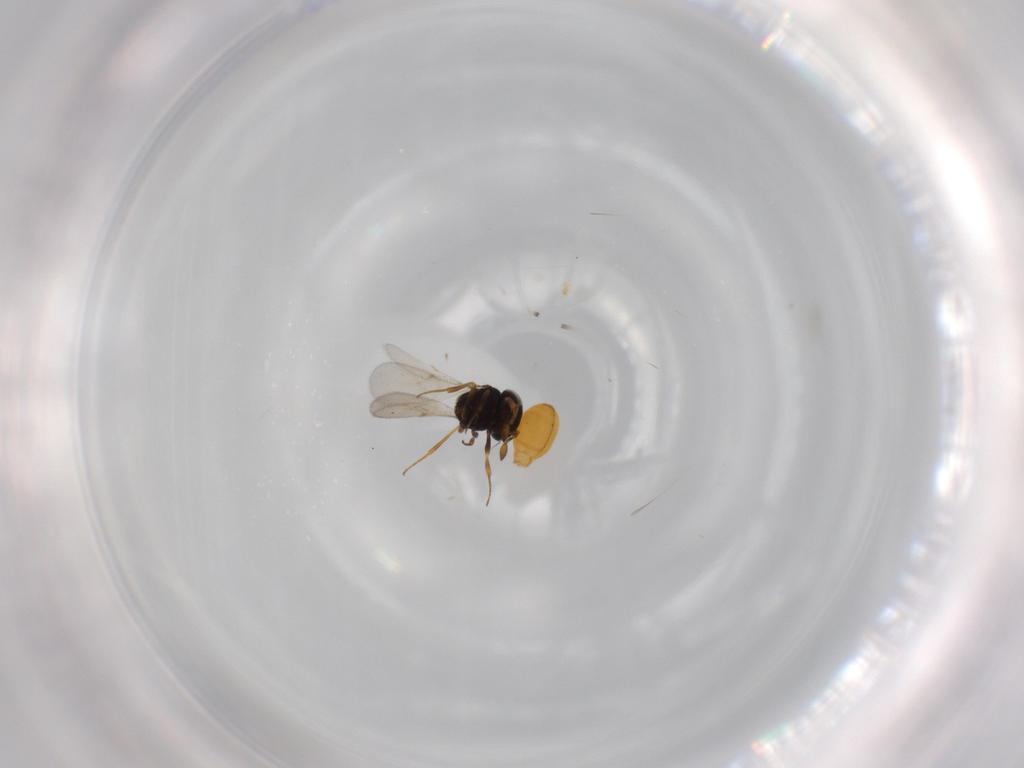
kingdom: Animalia
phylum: Arthropoda
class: Insecta
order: Hymenoptera
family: Scelionidae
